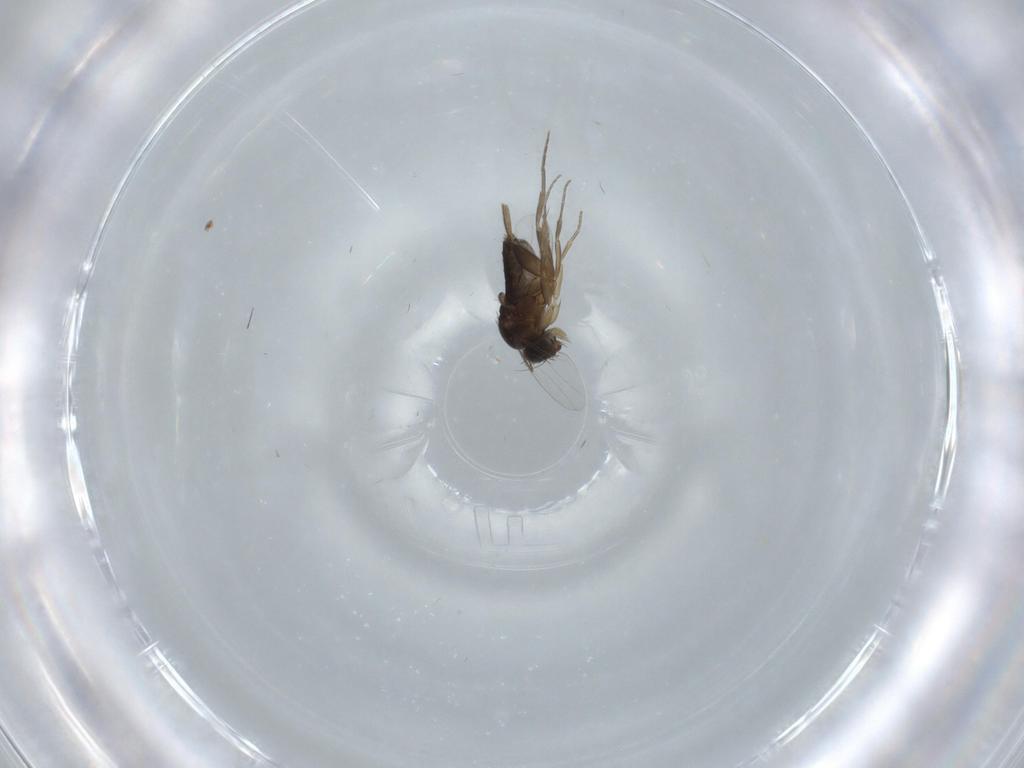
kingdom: Animalia
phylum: Arthropoda
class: Insecta
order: Diptera
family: Phoridae
